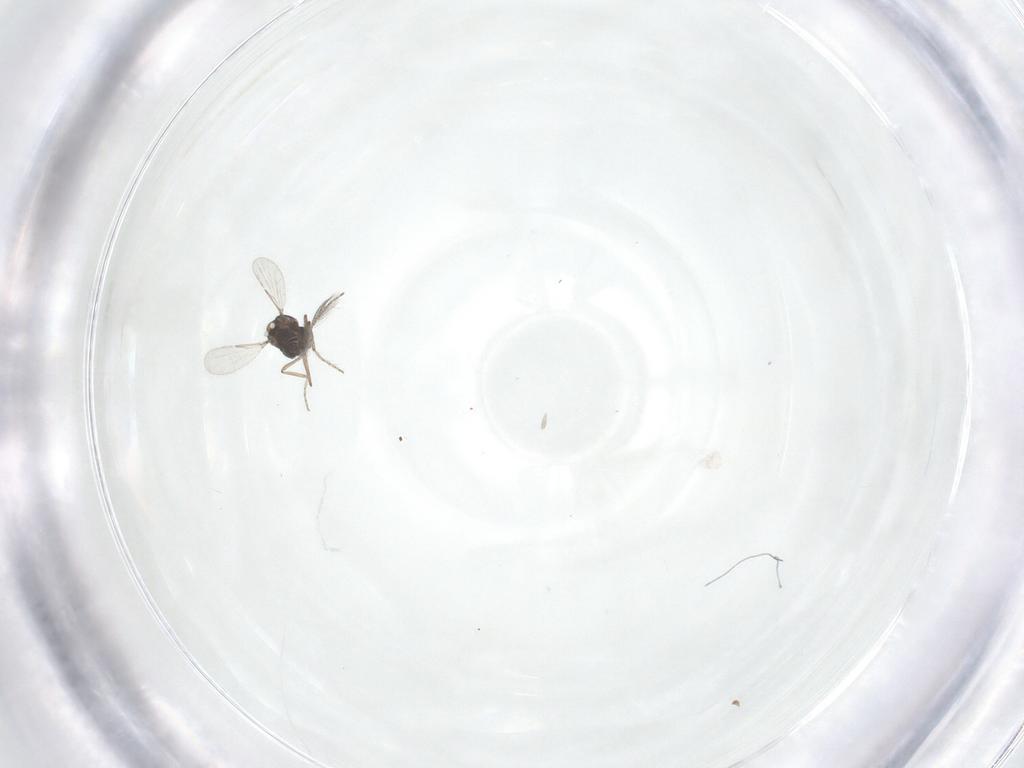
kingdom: Animalia
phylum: Arthropoda
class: Insecta
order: Diptera
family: Ceratopogonidae
